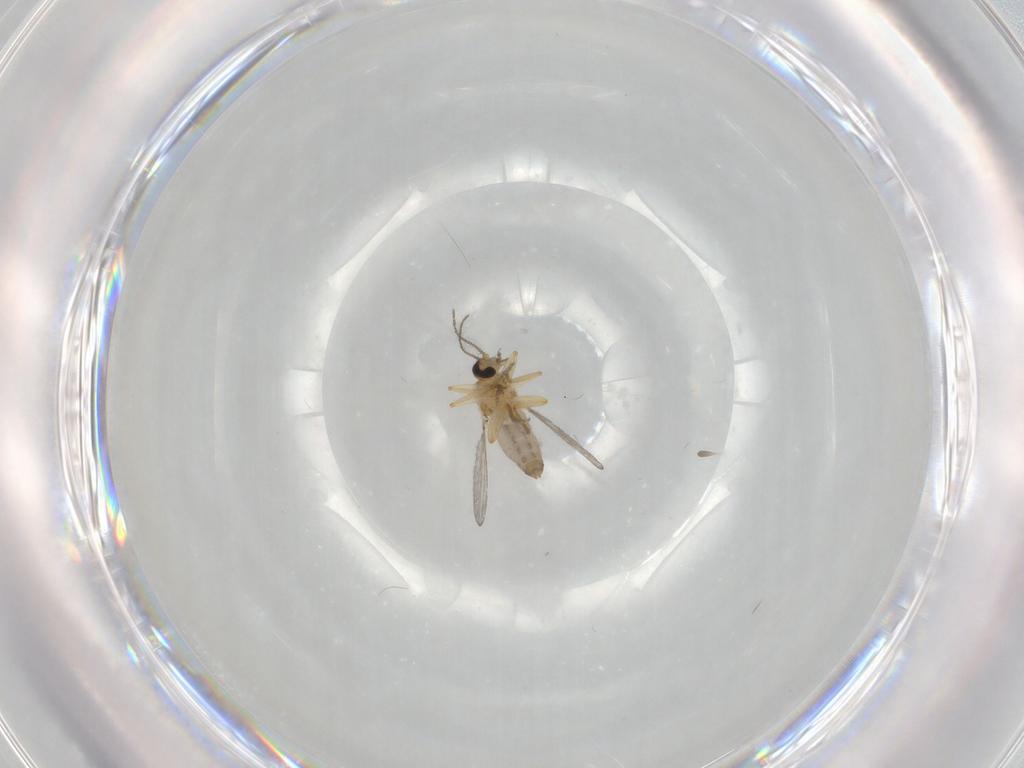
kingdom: Animalia
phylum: Arthropoda
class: Insecta
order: Diptera
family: Ceratopogonidae
